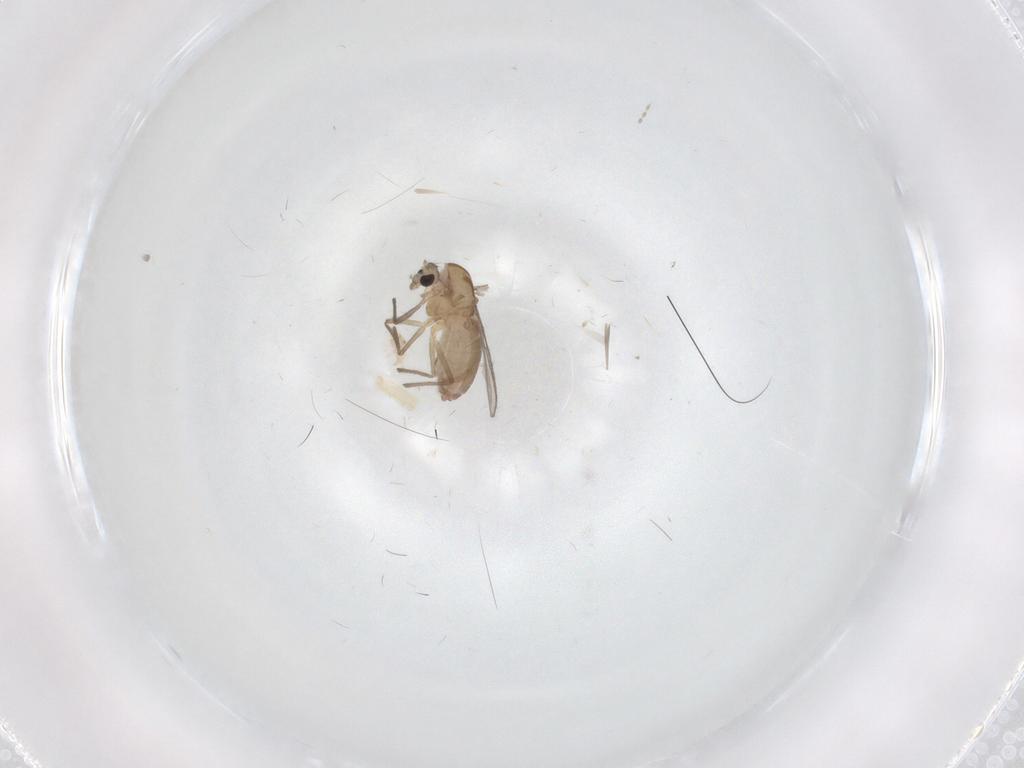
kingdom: Animalia
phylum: Arthropoda
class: Insecta
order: Diptera
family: Chironomidae
